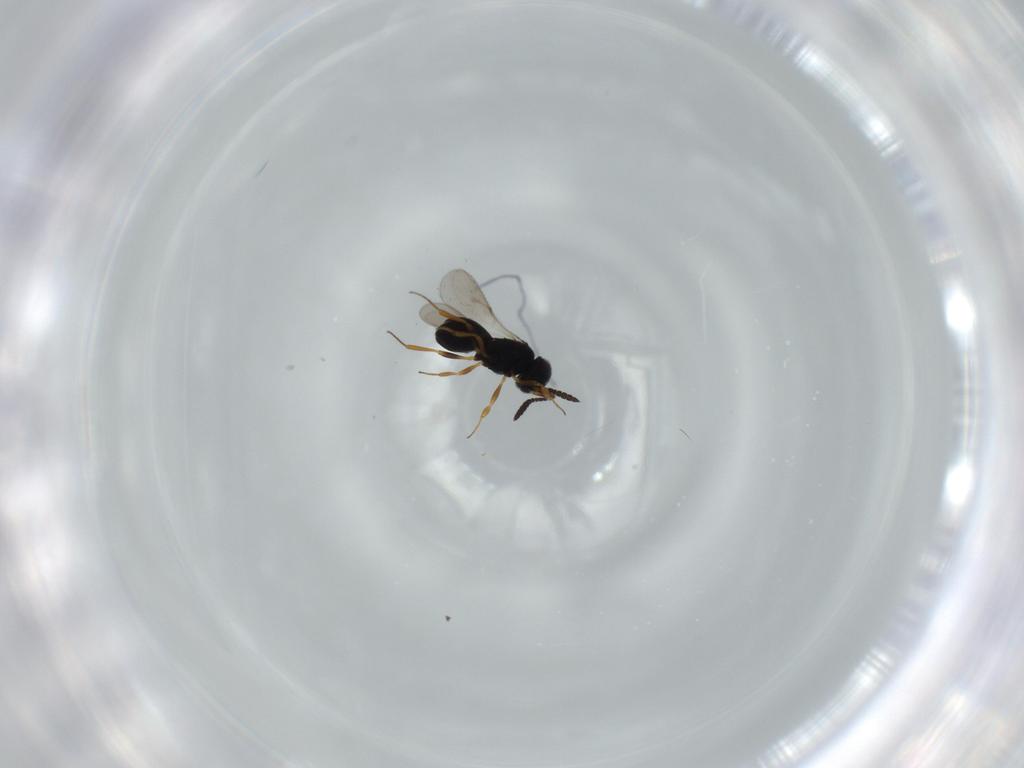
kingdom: Animalia
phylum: Arthropoda
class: Insecta
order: Hymenoptera
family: Scelionidae
